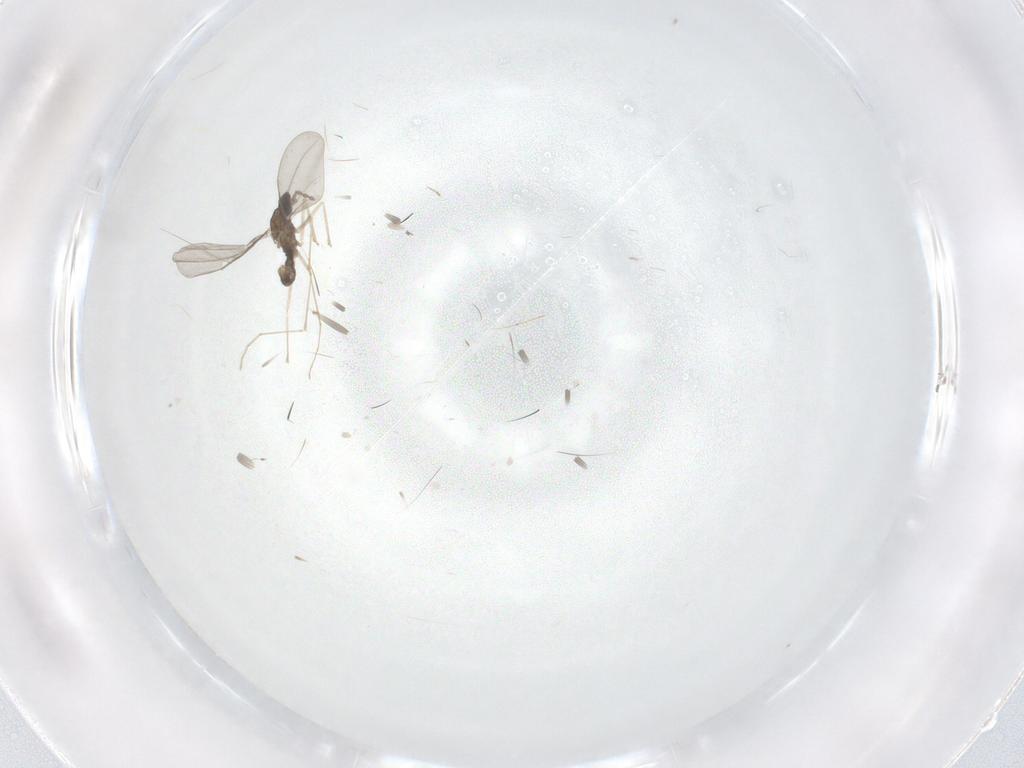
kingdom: Animalia
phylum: Arthropoda
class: Insecta
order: Diptera
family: Cecidomyiidae
